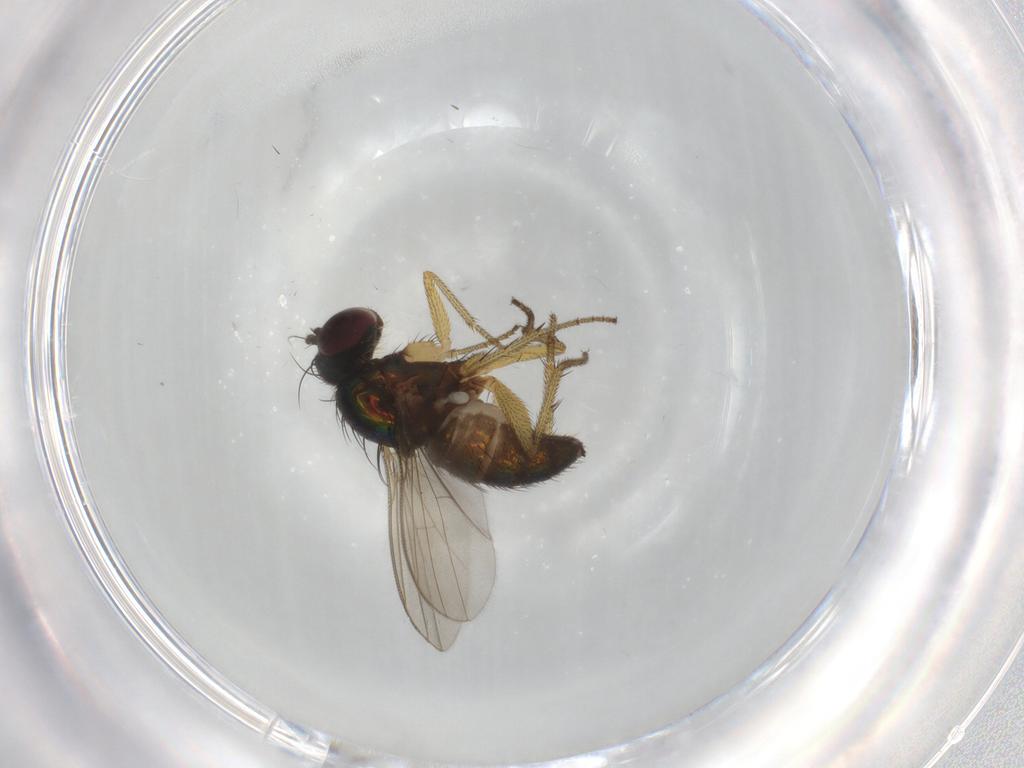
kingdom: Animalia
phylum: Arthropoda
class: Insecta
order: Diptera
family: Dolichopodidae
